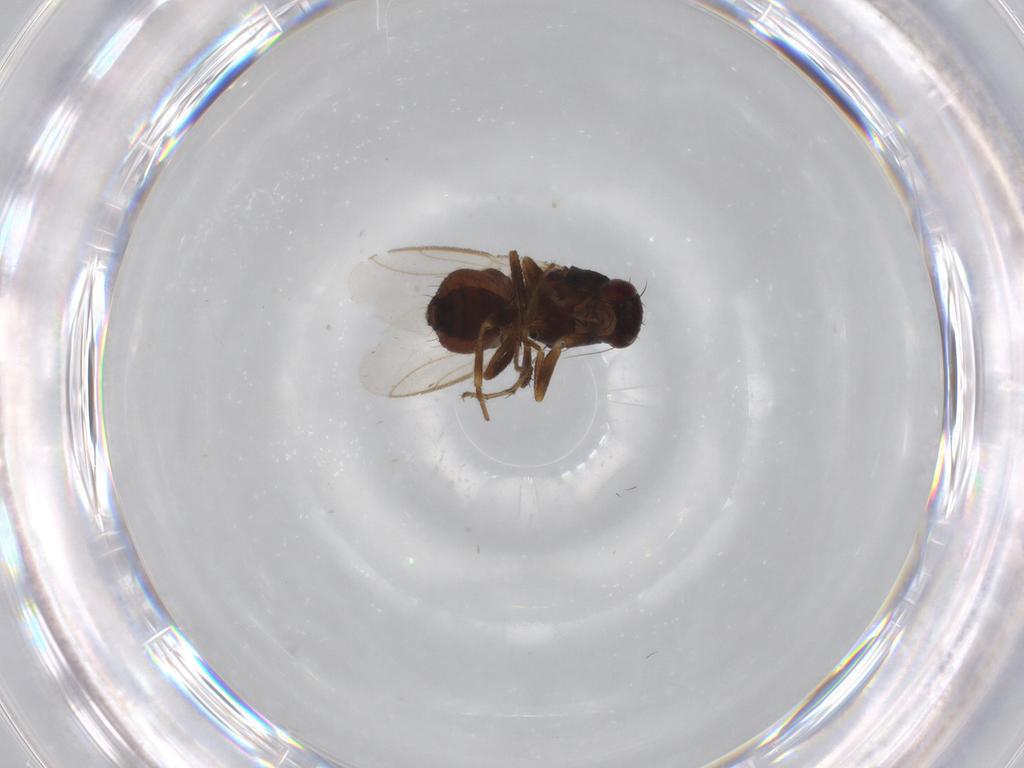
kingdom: Animalia
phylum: Arthropoda
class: Insecta
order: Diptera
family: Sphaeroceridae
